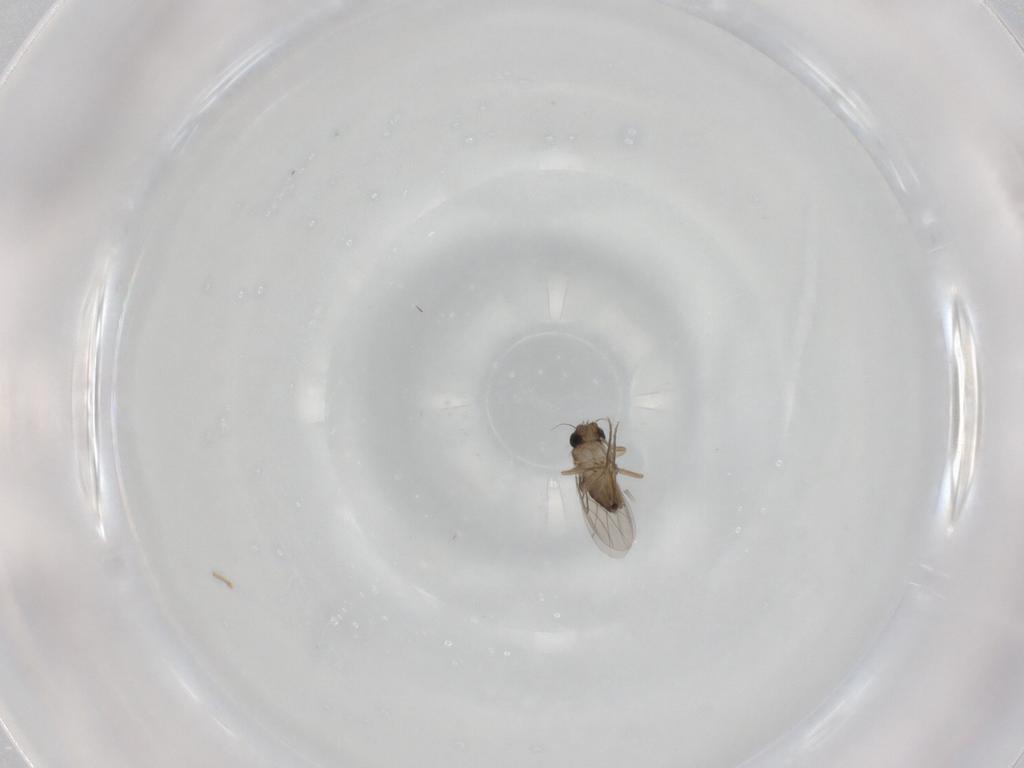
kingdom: Animalia
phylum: Arthropoda
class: Insecta
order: Diptera
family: Phoridae
